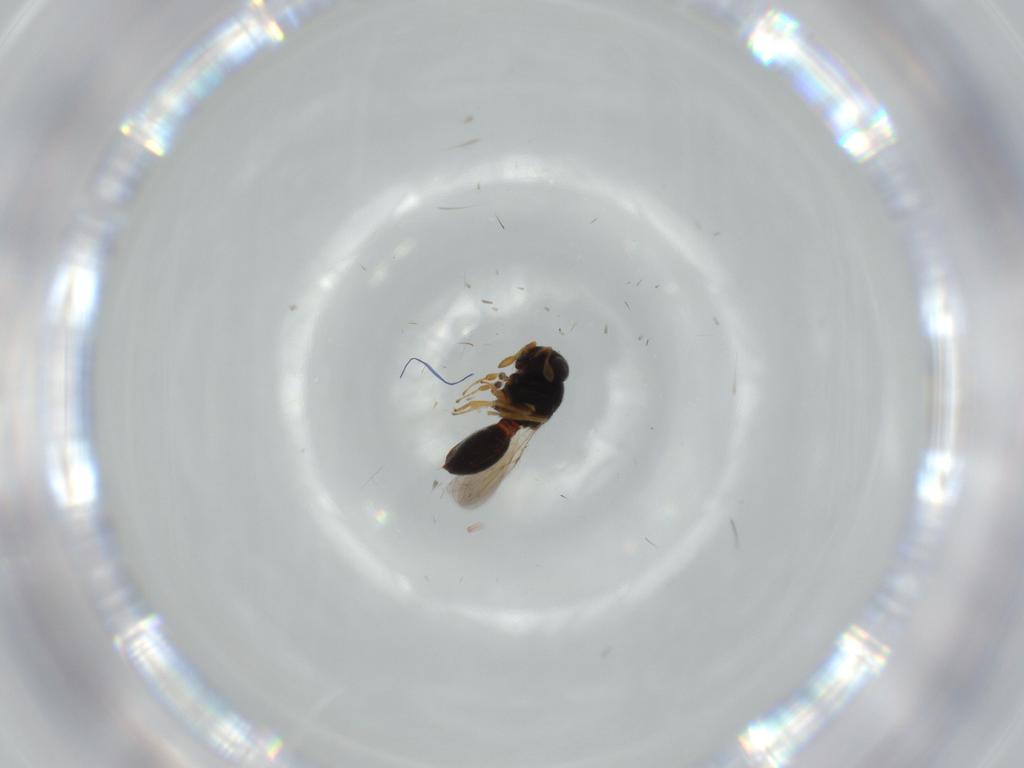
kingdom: Animalia
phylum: Arthropoda
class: Insecta
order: Hymenoptera
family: Scelionidae
